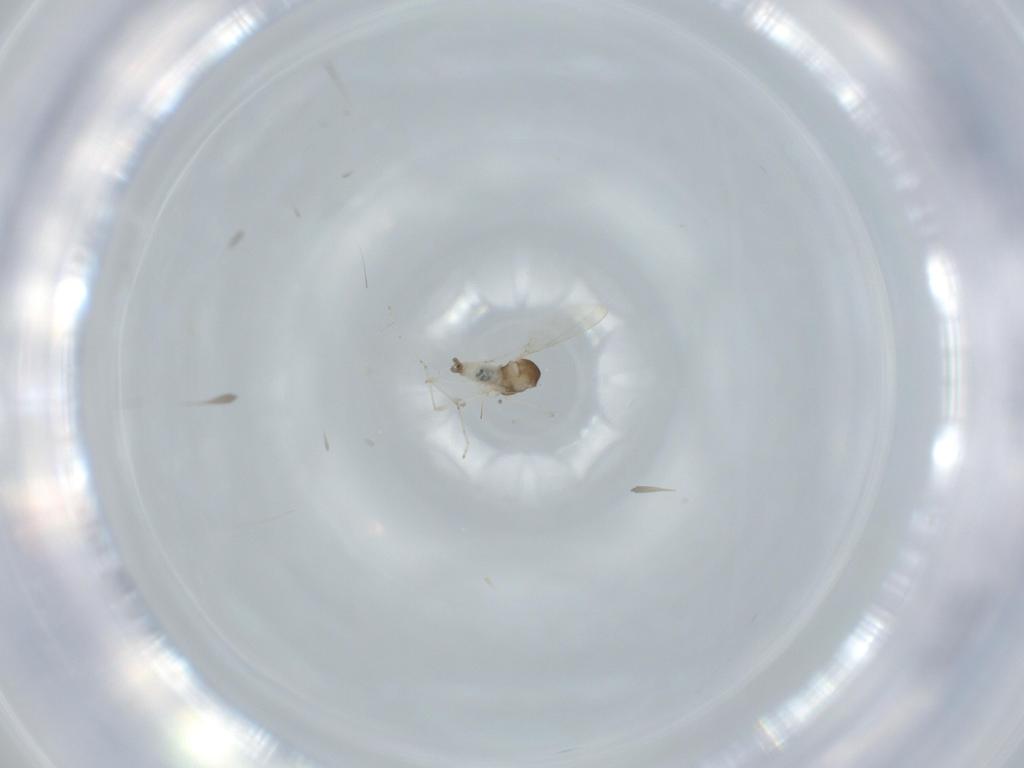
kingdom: Animalia
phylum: Arthropoda
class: Insecta
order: Diptera
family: Cecidomyiidae
